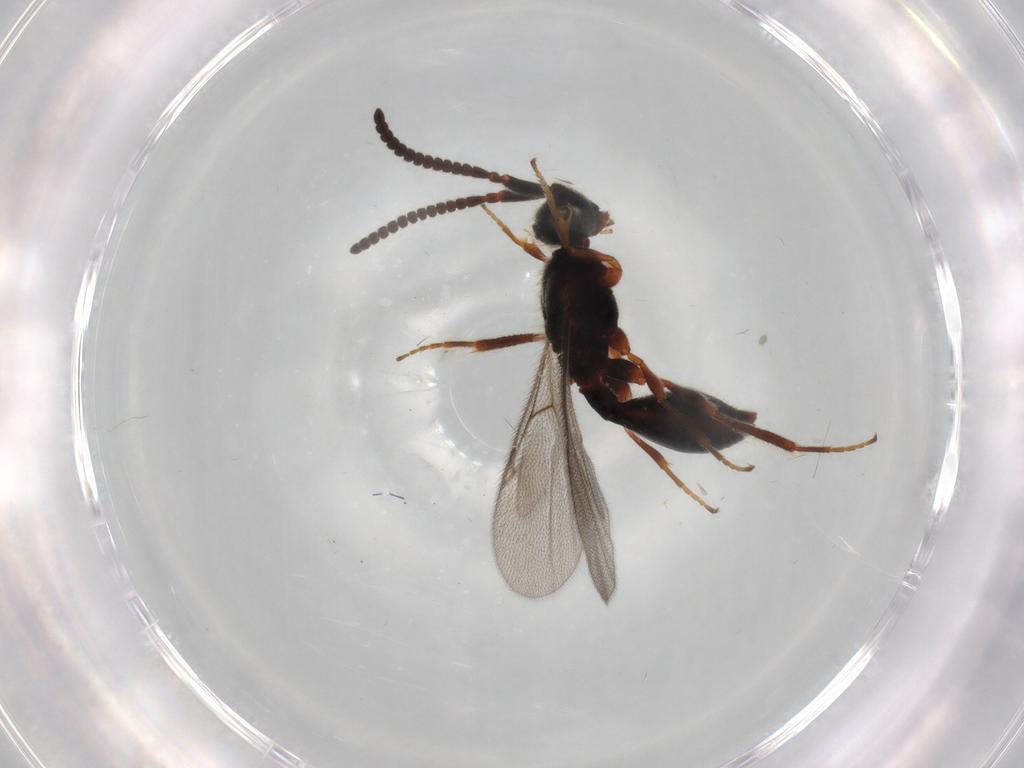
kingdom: Animalia
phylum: Arthropoda
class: Insecta
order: Hymenoptera
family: Diapriidae
